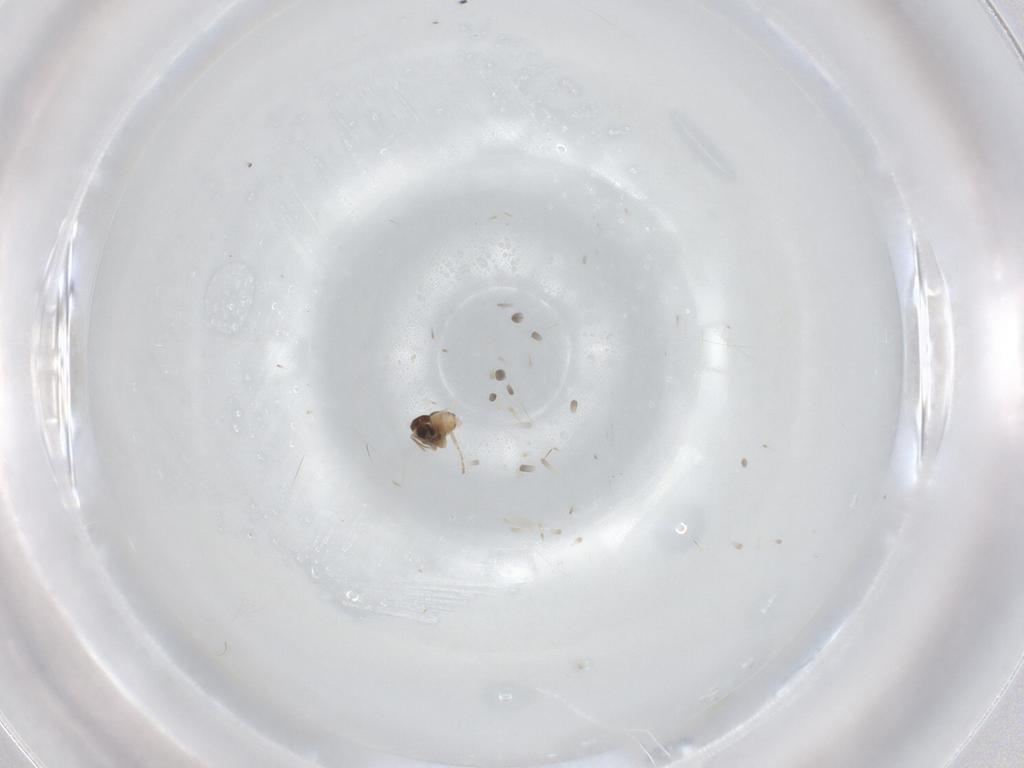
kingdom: Animalia
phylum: Arthropoda
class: Insecta
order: Diptera
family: Cecidomyiidae
